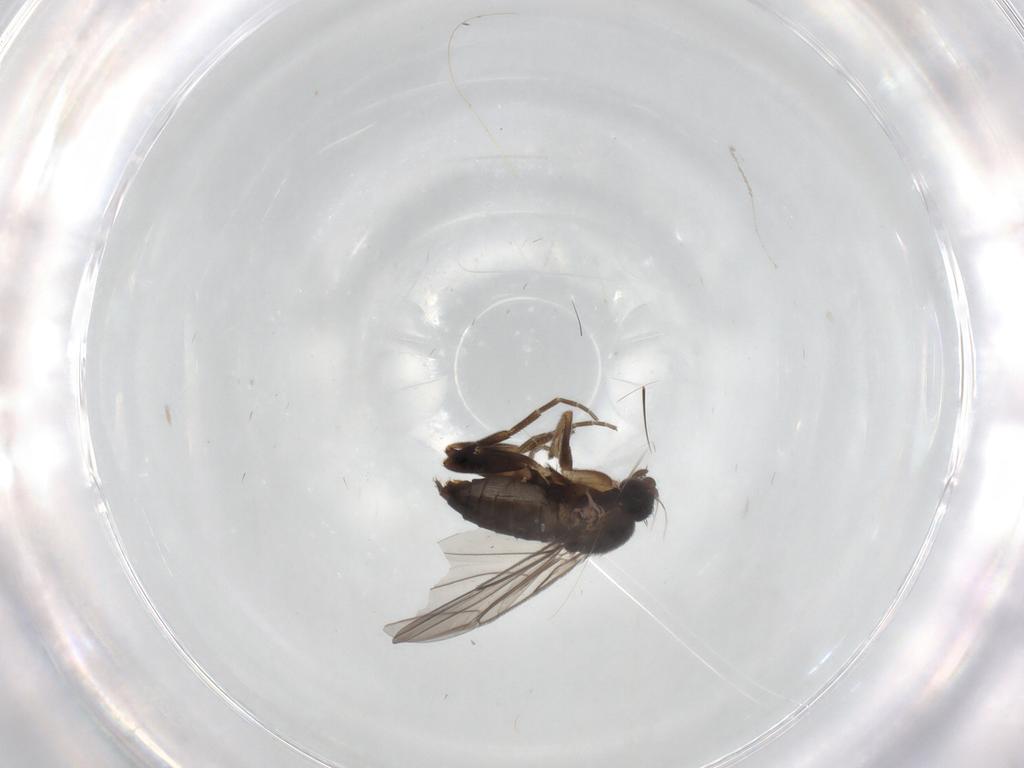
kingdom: Animalia
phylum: Arthropoda
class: Insecta
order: Diptera
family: Phoridae
